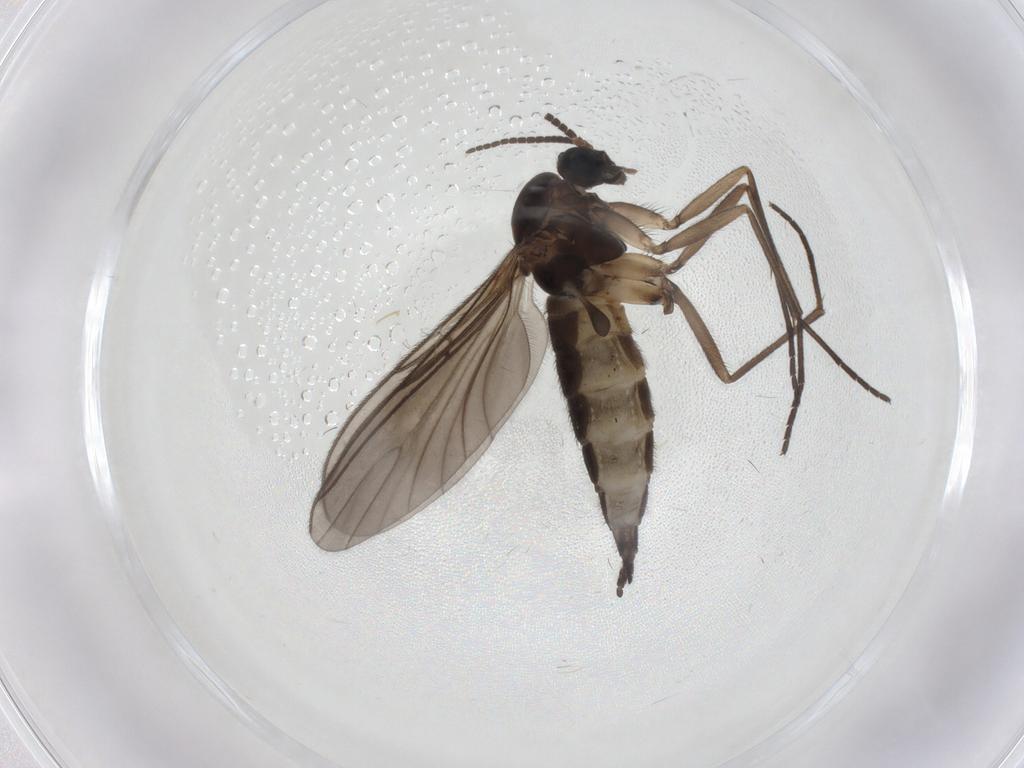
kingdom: Animalia
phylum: Arthropoda
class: Insecta
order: Diptera
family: Sciaridae
